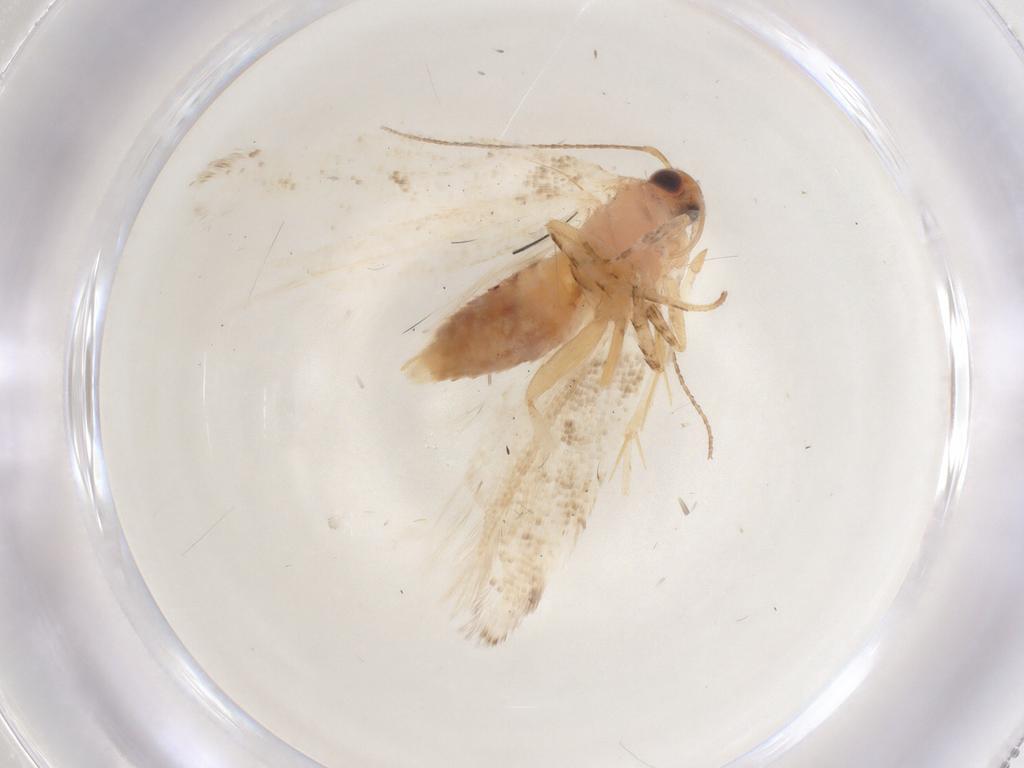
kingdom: Animalia
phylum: Arthropoda
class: Insecta
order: Lepidoptera
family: Gelechiidae
